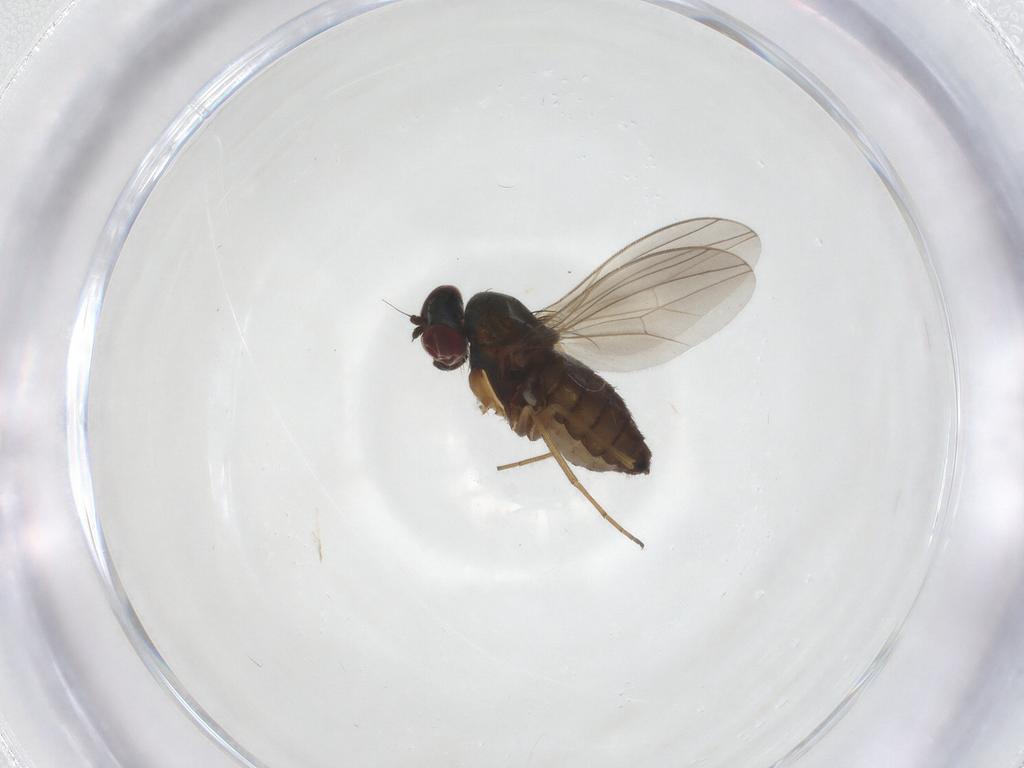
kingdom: Animalia
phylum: Arthropoda
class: Insecta
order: Diptera
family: Dolichopodidae
